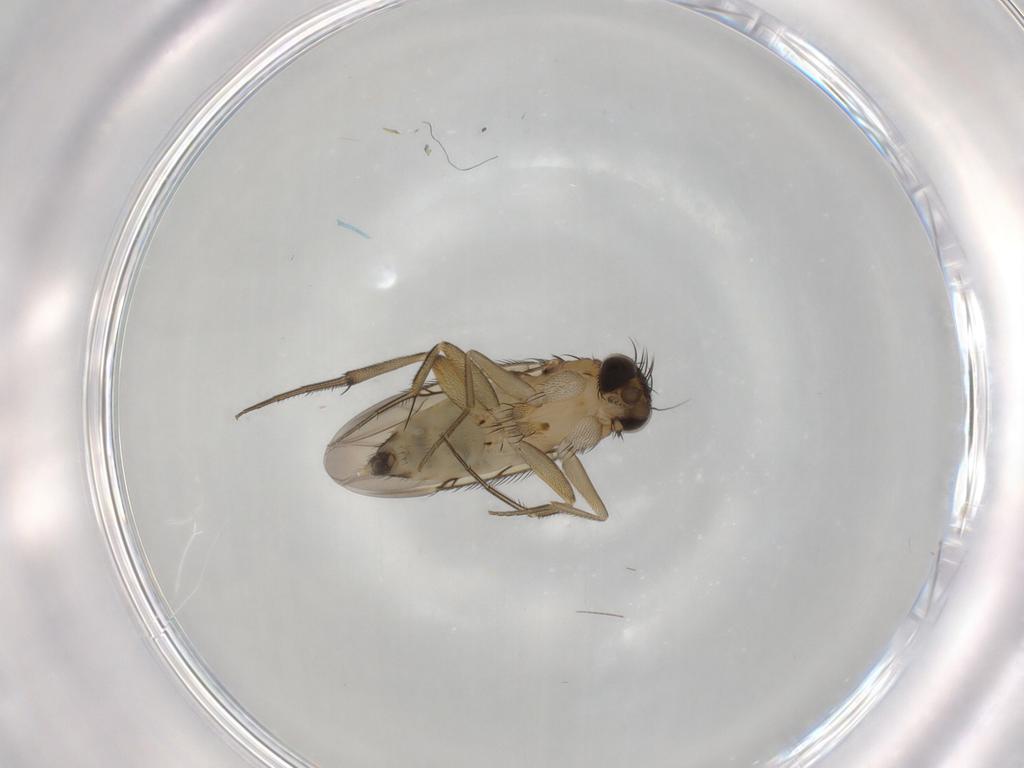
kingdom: Animalia
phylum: Arthropoda
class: Insecta
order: Diptera
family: Phoridae
